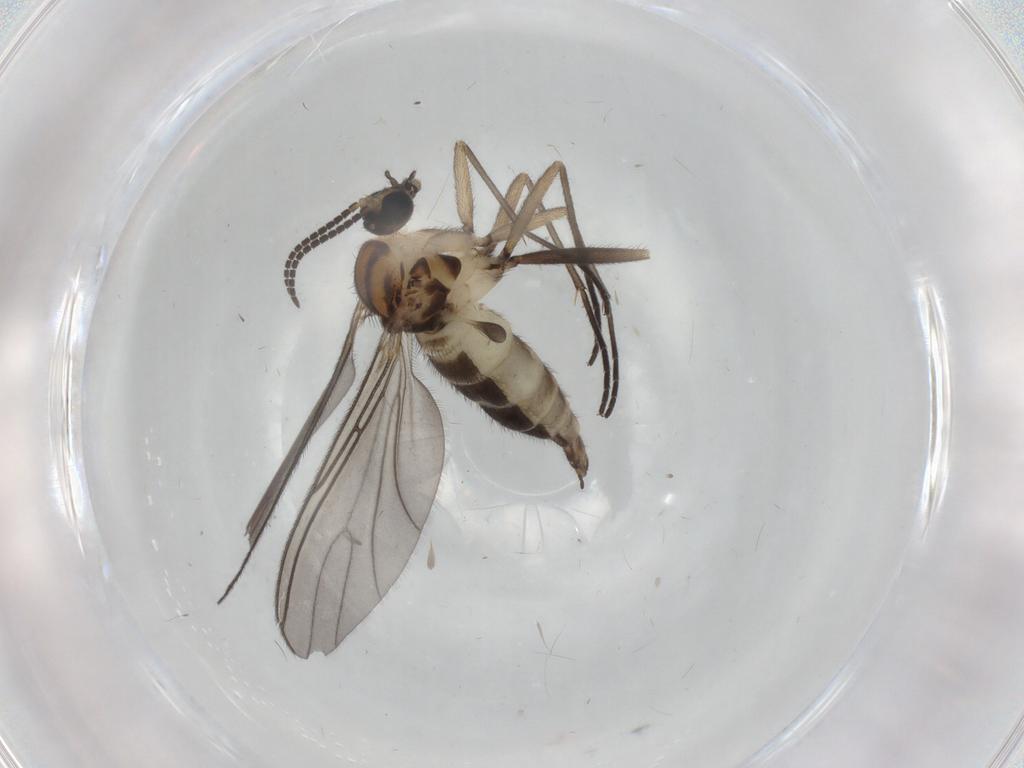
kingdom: Animalia
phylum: Arthropoda
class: Insecta
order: Diptera
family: Sciaridae
